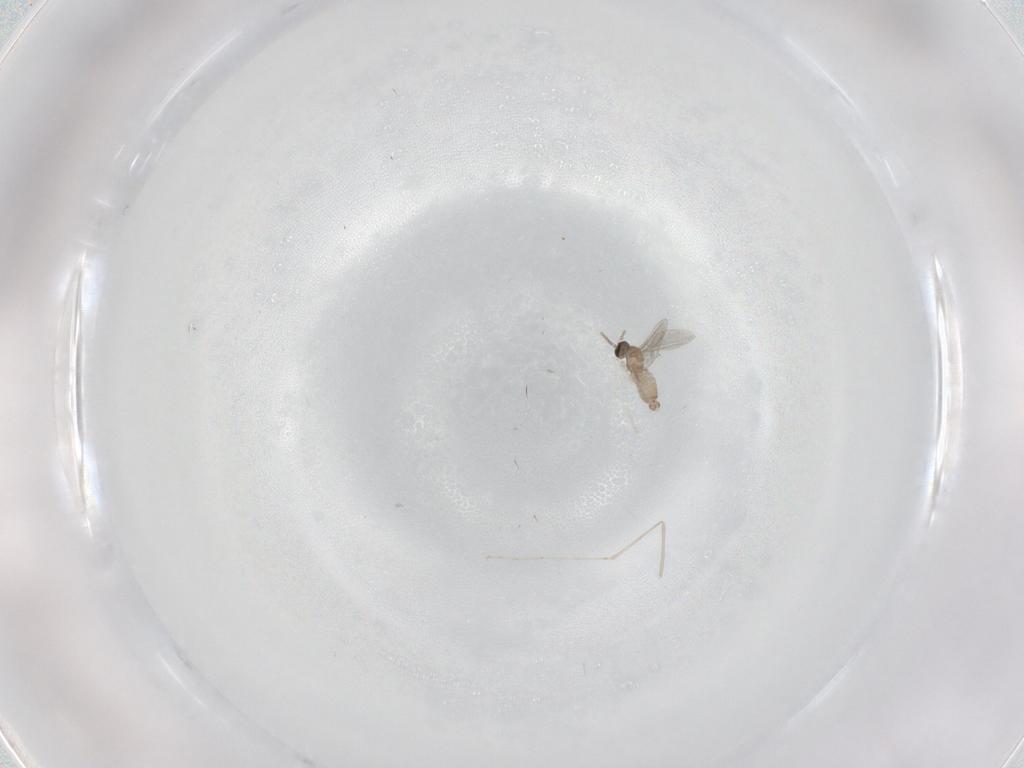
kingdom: Animalia
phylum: Arthropoda
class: Insecta
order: Diptera
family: Cecidomyiidae
